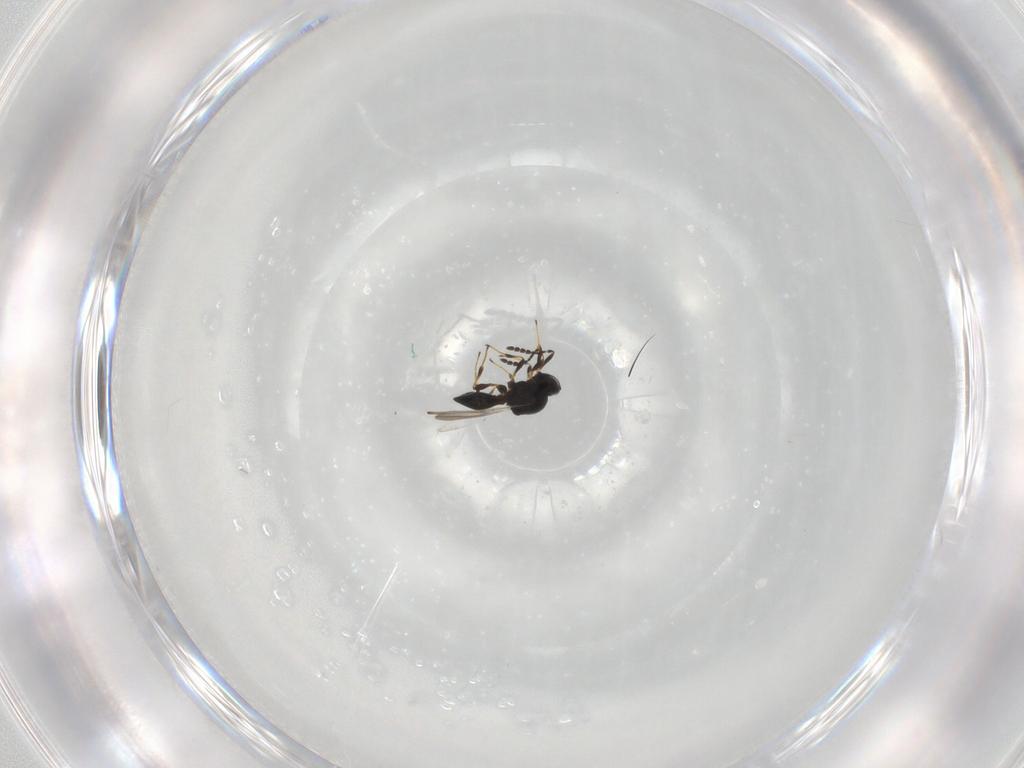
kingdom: Animalia
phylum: Arthropoda
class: Insecta
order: Hymenoptera
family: Platygastridae
